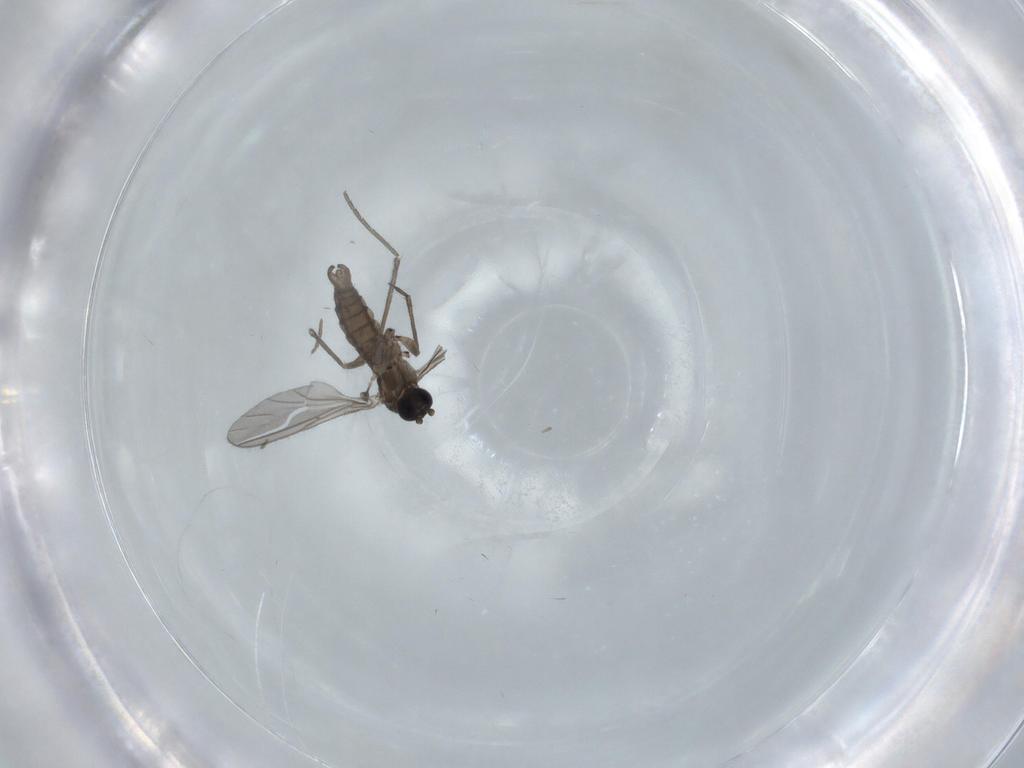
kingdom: Animalia
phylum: Arthropoda
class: Insecta
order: Diptera
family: Sciaridae
